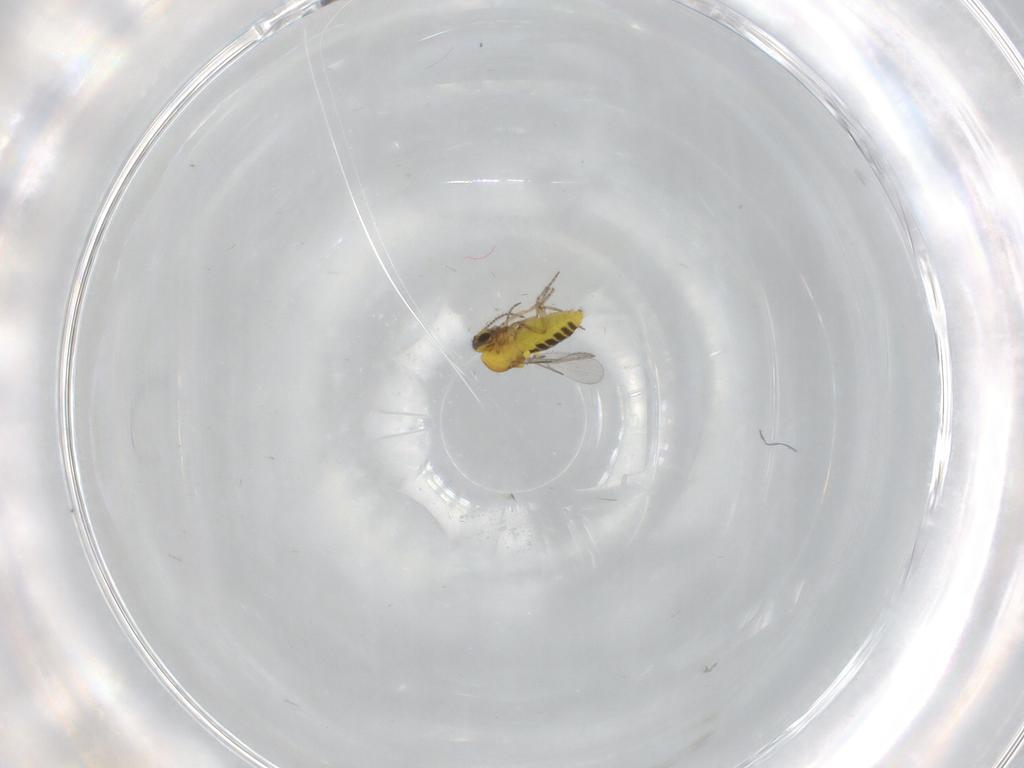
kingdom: Animalia
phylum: Arthropoda
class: Insecta
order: Diptera
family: Ceratopogonidae
